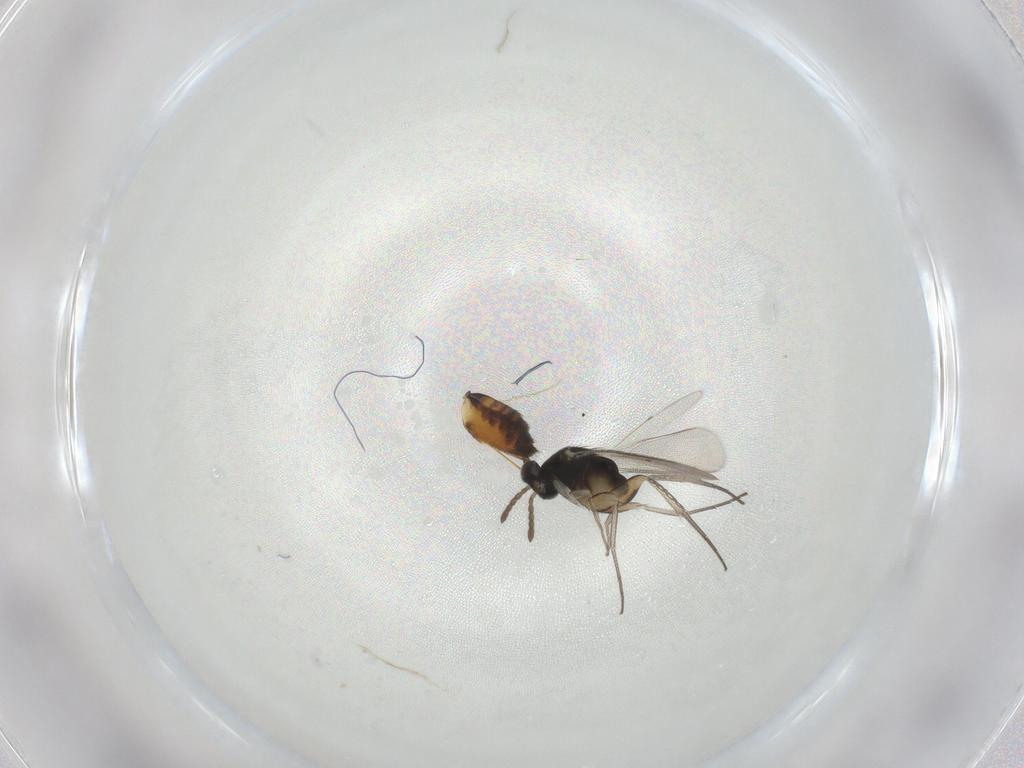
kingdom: Animalia
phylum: Arthropoda
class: Insecta
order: Hymenoptera
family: Eulophidae
